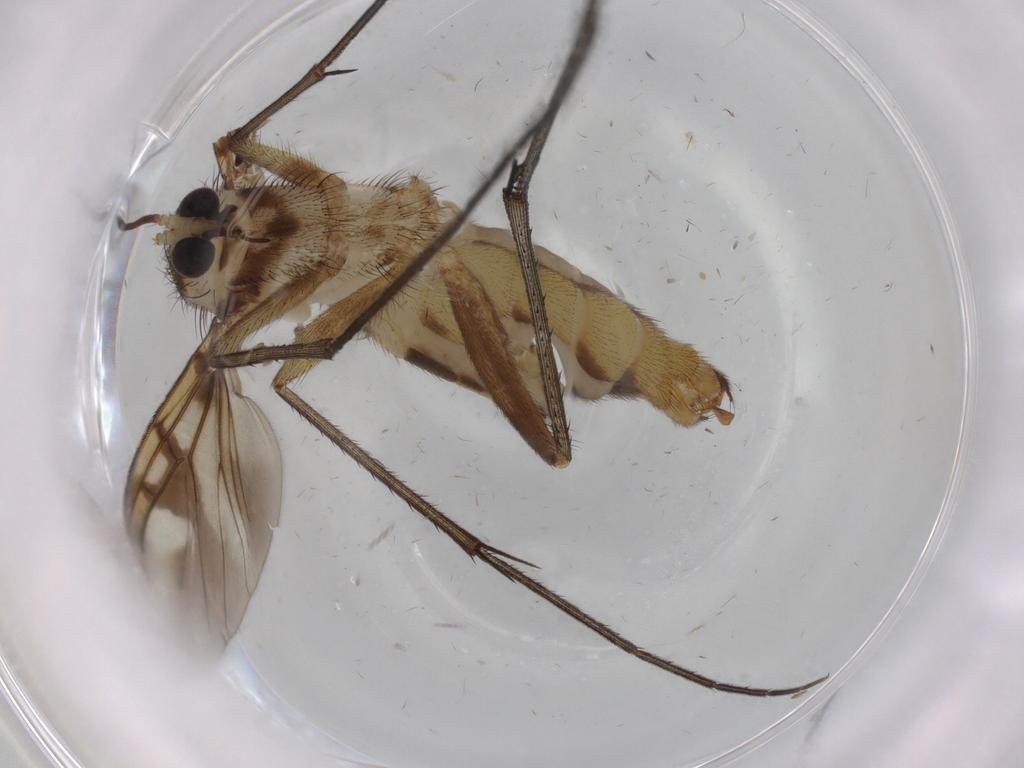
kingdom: Animalia
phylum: Arthropoda
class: Insecta
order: Diptera
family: Mycetophilidae
